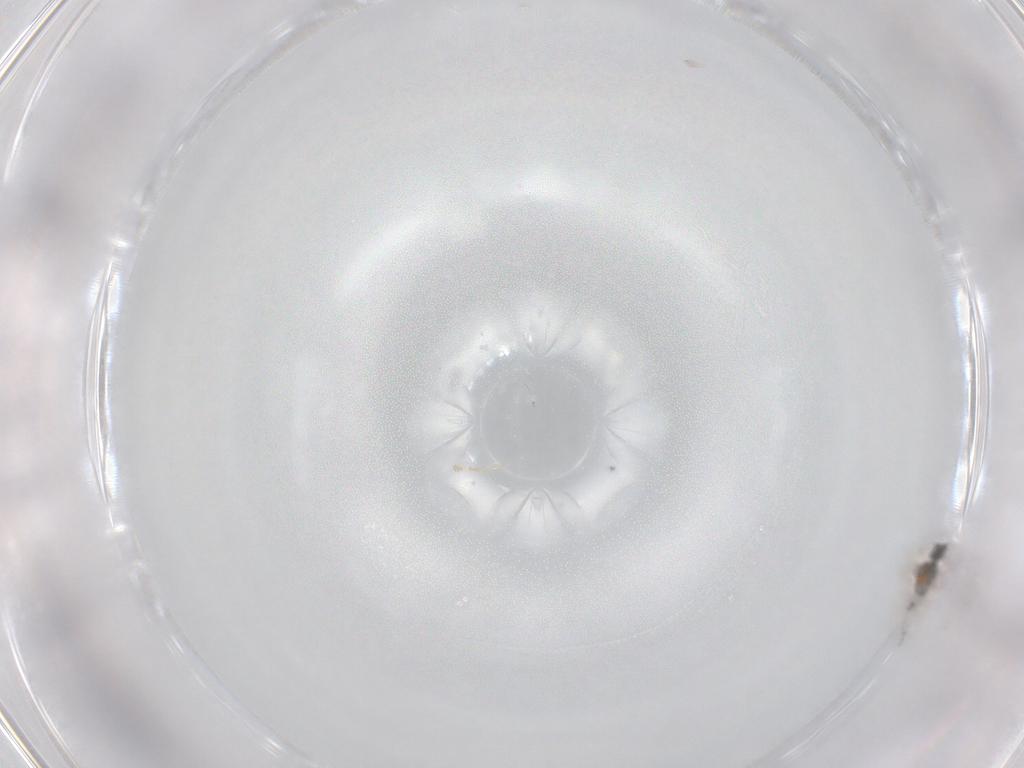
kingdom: Animalia
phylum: Arthropoda
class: Insecta
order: Diptera
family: Cecidomyiidae
